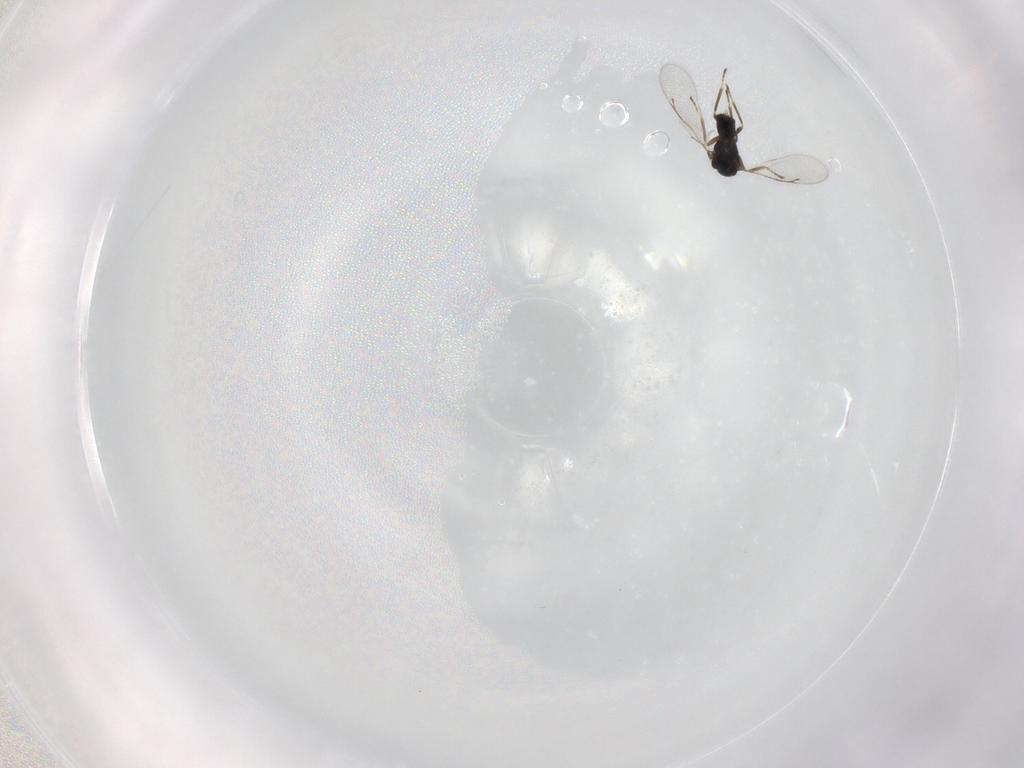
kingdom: Animalia
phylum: Arthropoda
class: Insecta
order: Hymenoptera
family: Eulophidae
